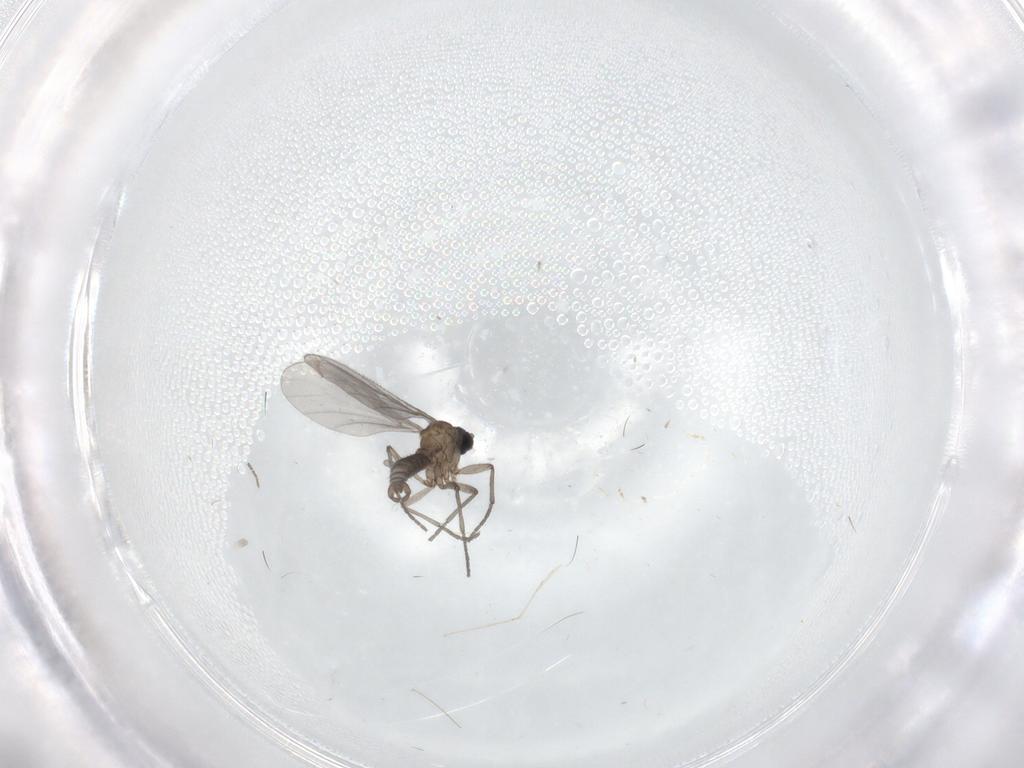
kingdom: Animalia
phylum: Arthropoda
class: Insecta
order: Diptera
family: Sciaridae
